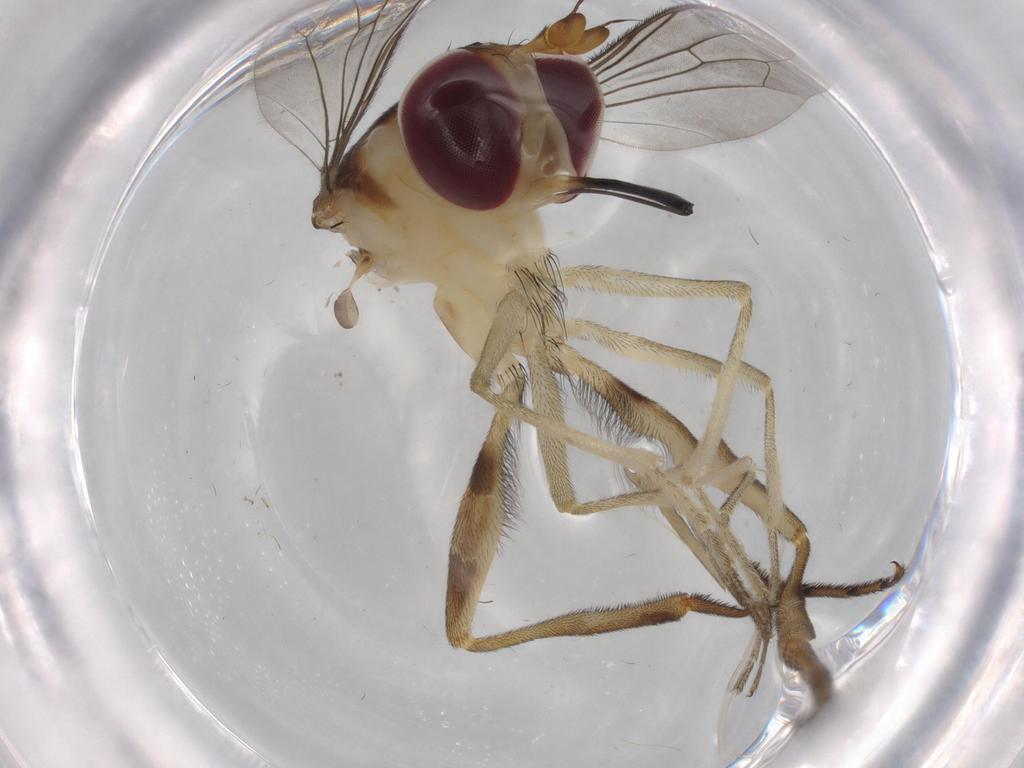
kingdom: Animalia
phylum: Arthropoda
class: Insecta
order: Diptera
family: Conopidae
